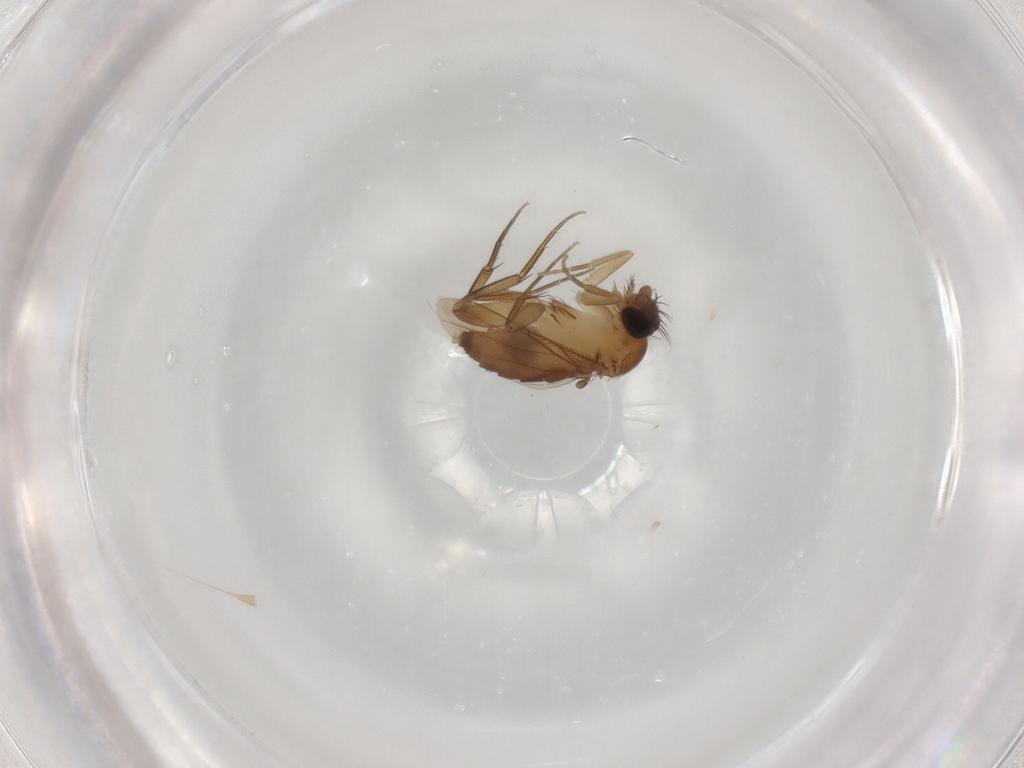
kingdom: Animalia
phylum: Arthropoda
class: Insecta
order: Diptera
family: Phoridae
